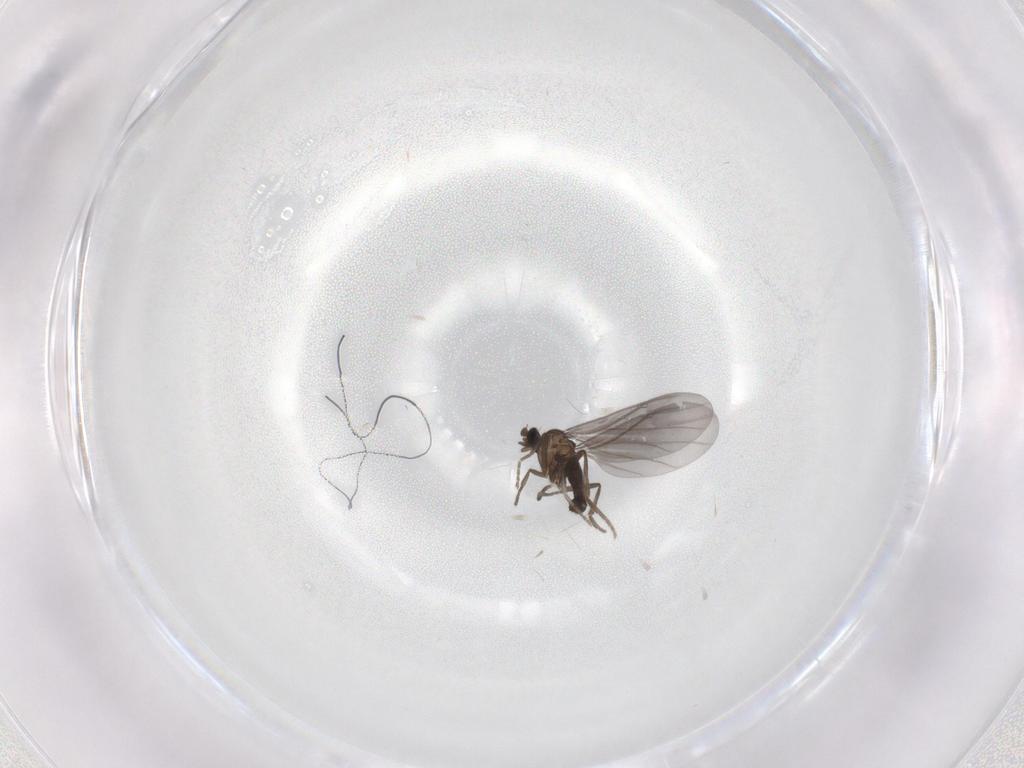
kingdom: Animalia
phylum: Arthropoda
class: Insecta
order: Diptera
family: Phoridae
